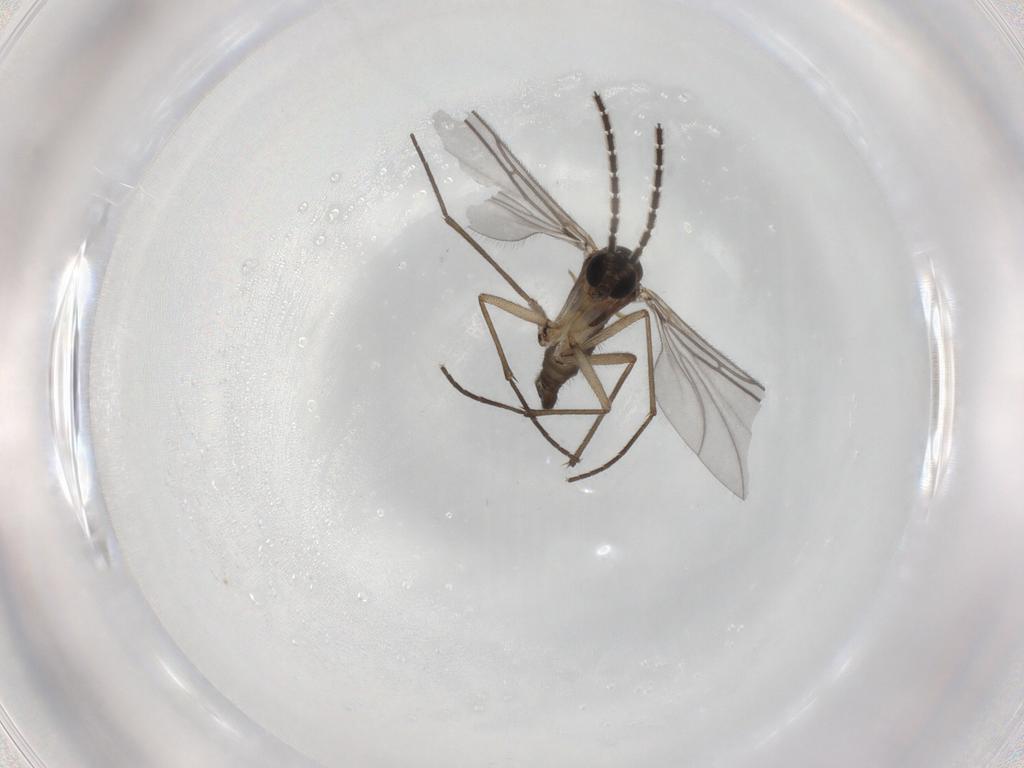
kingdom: Animalia
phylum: Arthropoda
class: Insecta
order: Diptera
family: Sciaridae
